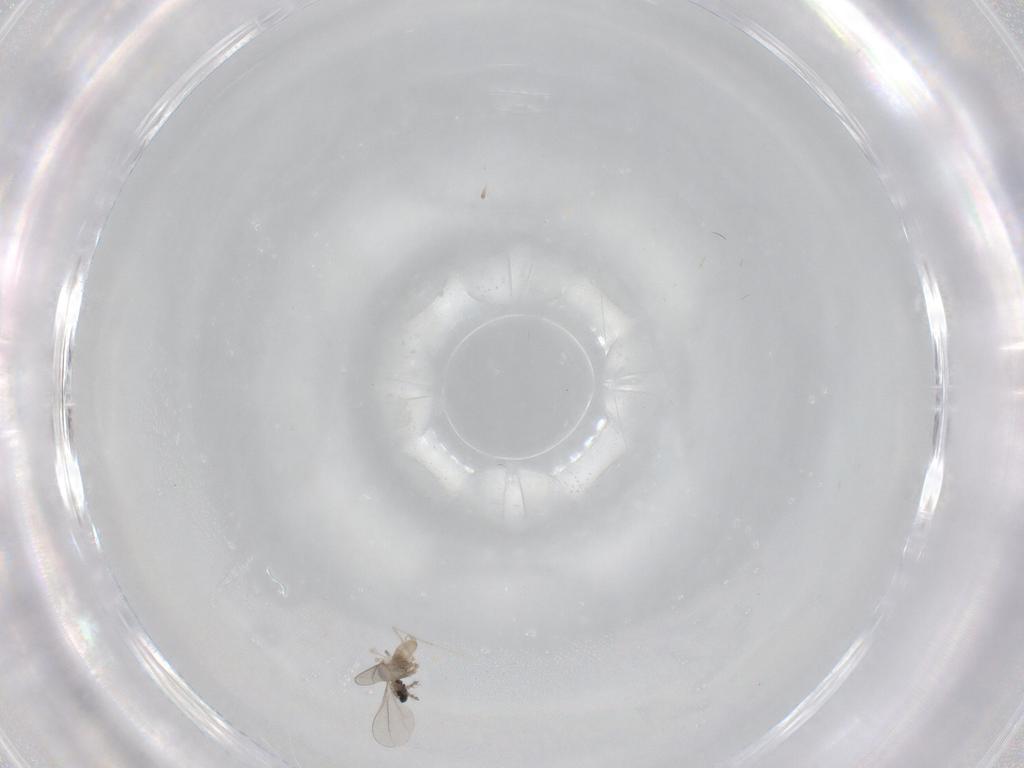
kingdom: Animalia
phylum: Arthropoda
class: Insecta
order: Diptera
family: Cecidomyiidae
